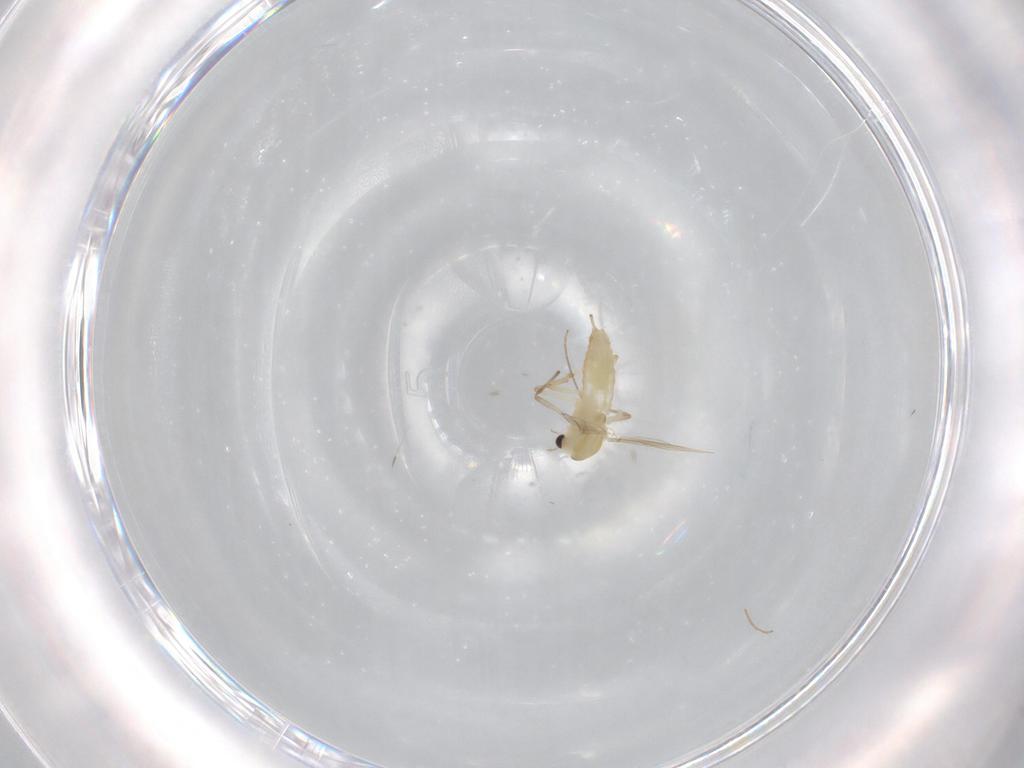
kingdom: Animalia
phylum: Arthropoda
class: Insecta
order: Diptera
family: Chironomidae
